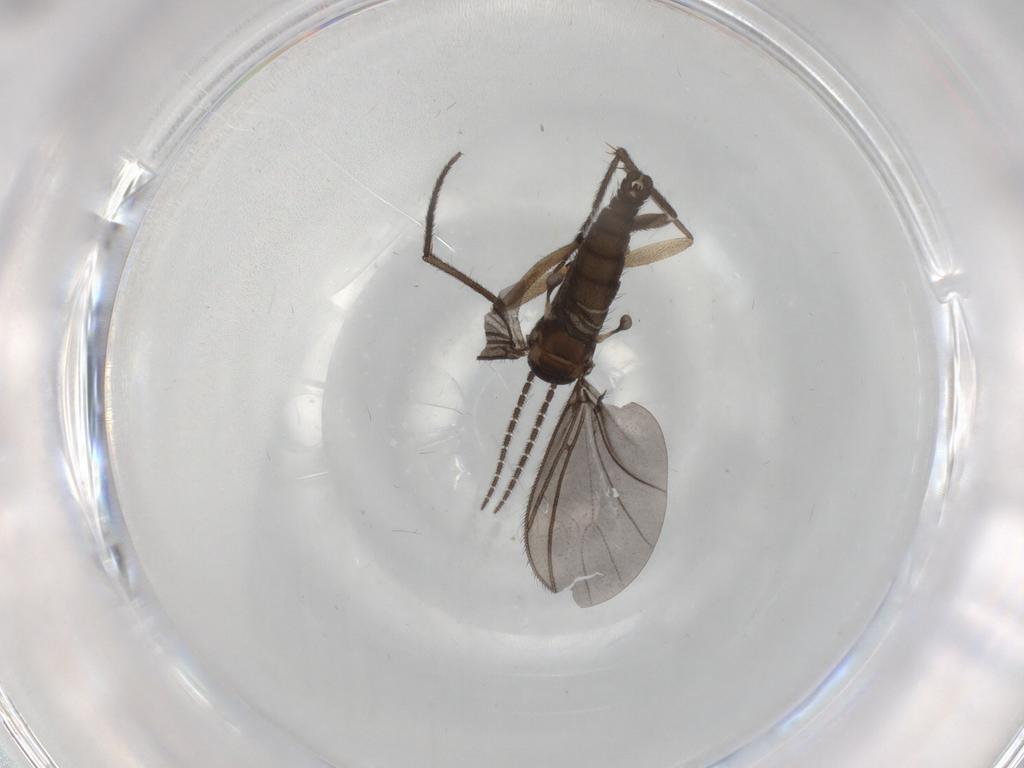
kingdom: Animalia
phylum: Arthropoda
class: Insecta
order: Diptera
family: Sciaridae
